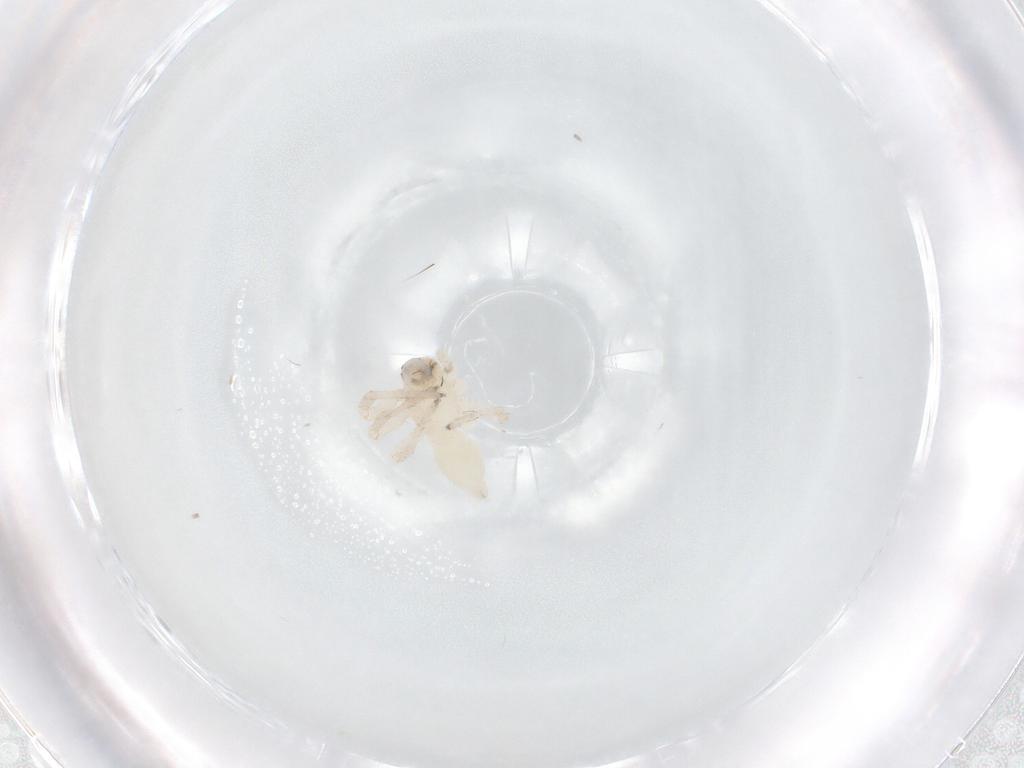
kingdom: Animalia
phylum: Arthropoda
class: Arachnida
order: Araneae
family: Anyphaenidae
